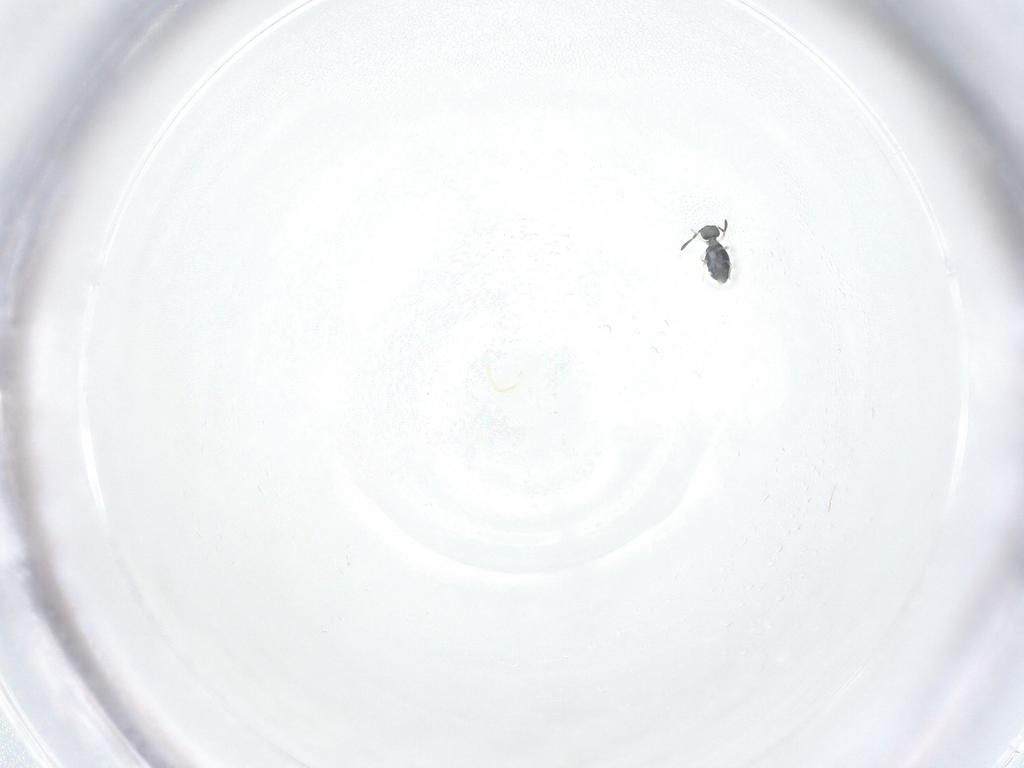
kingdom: Animalia
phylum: Arthropoda
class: Collembola
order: Symphypleona
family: Katiannidae
